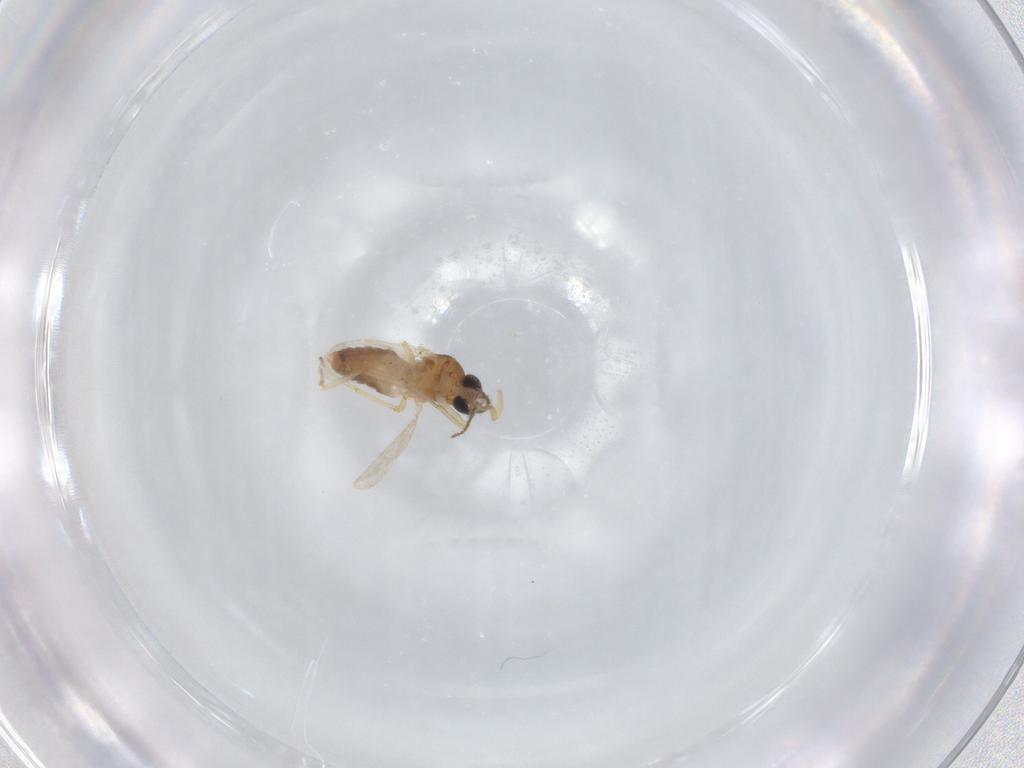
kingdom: Animalia
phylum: Arthropoda
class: Insecta
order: Diptera
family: Ceratopogonidae
